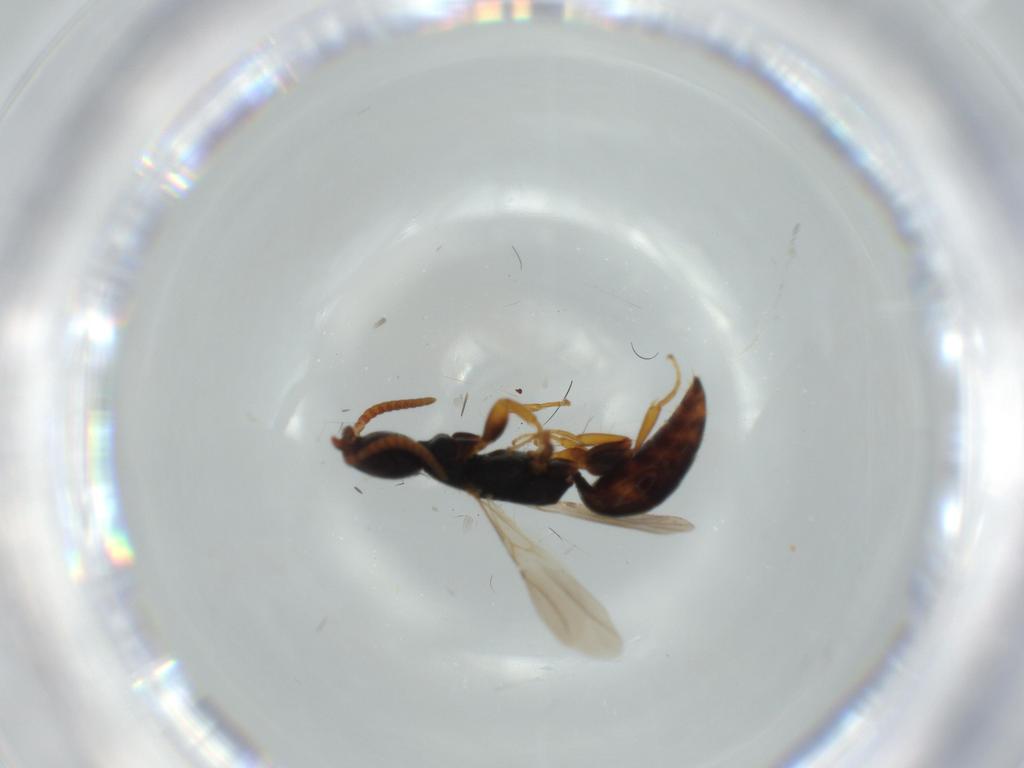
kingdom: Animalia
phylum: Arthropoda
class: Insecta
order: Hymenoptera
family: Bethylidae
